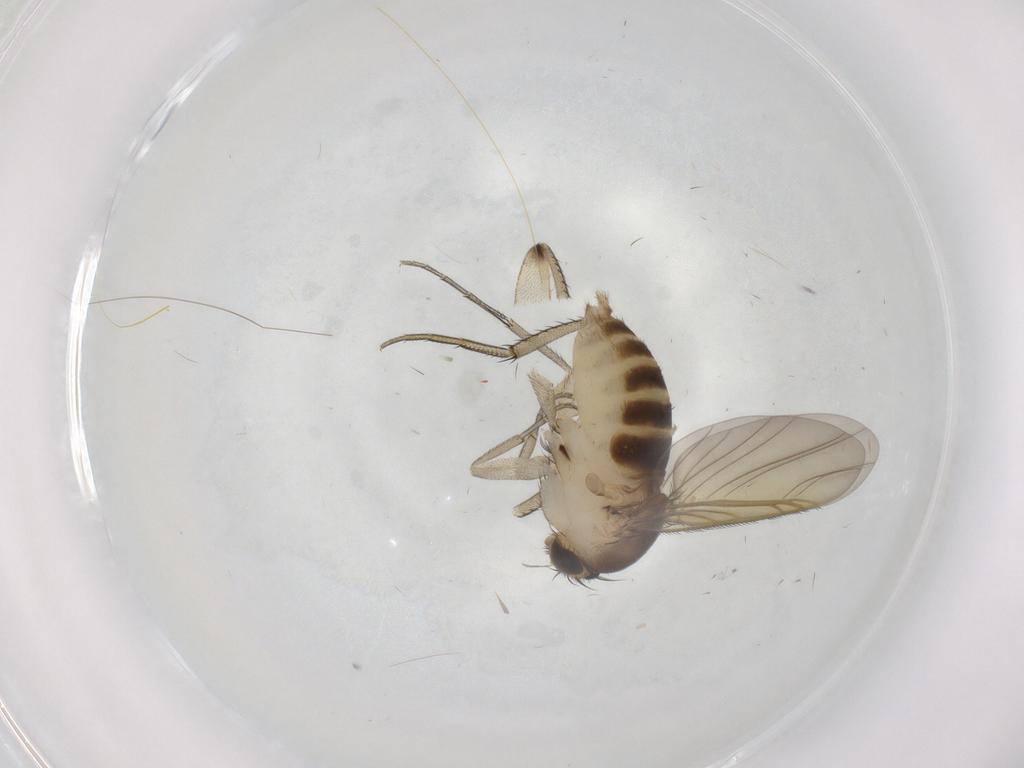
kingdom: Animalia
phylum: Arthropoda
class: Insecta
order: Diptera
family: Phoridae
